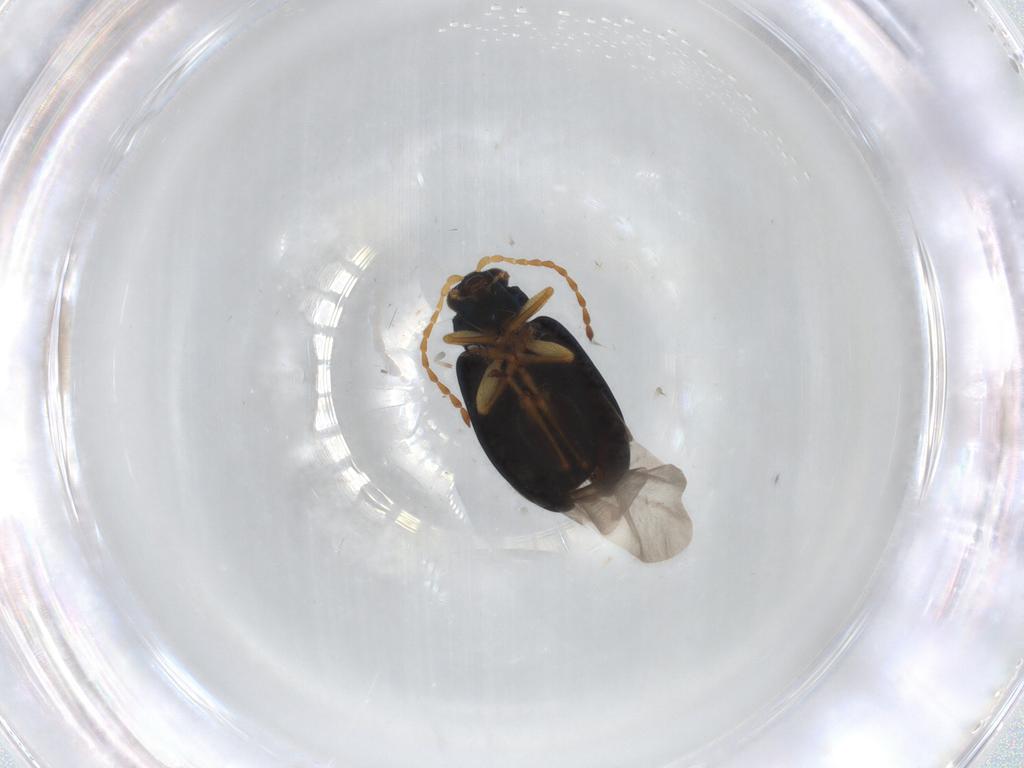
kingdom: Animalia
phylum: Arthropoda
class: Insecta
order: Coleoptera
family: Chrysomelidae
